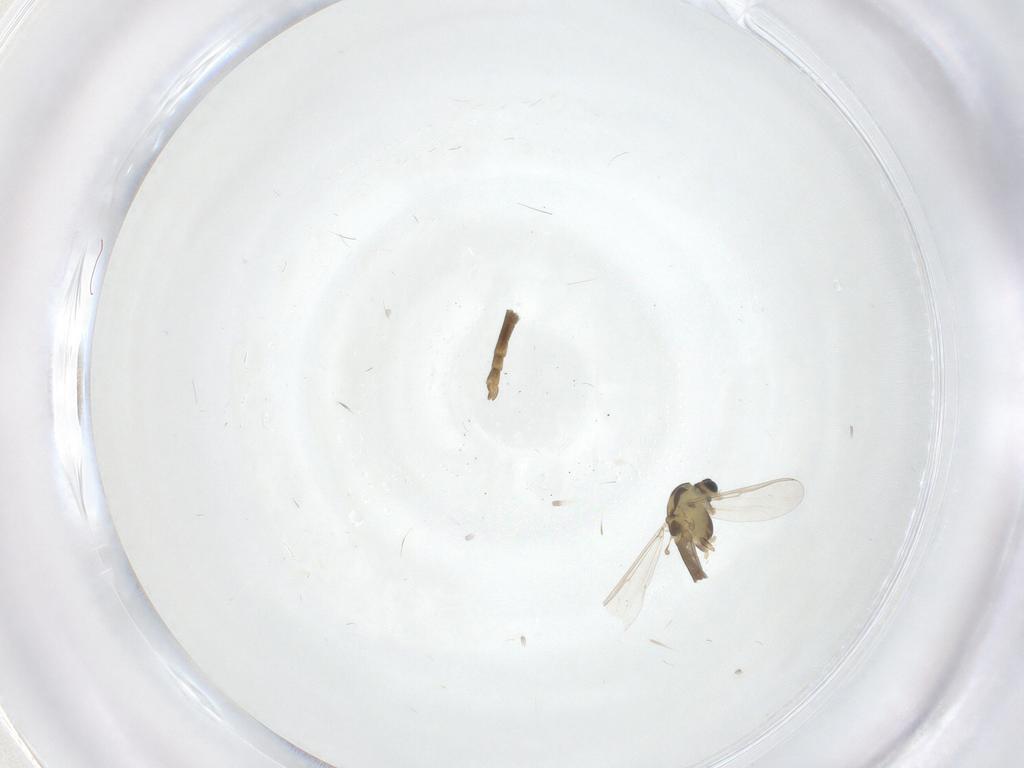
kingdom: Animalia
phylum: Arthropoda
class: Insecta
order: Diptera
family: Chironomidae
